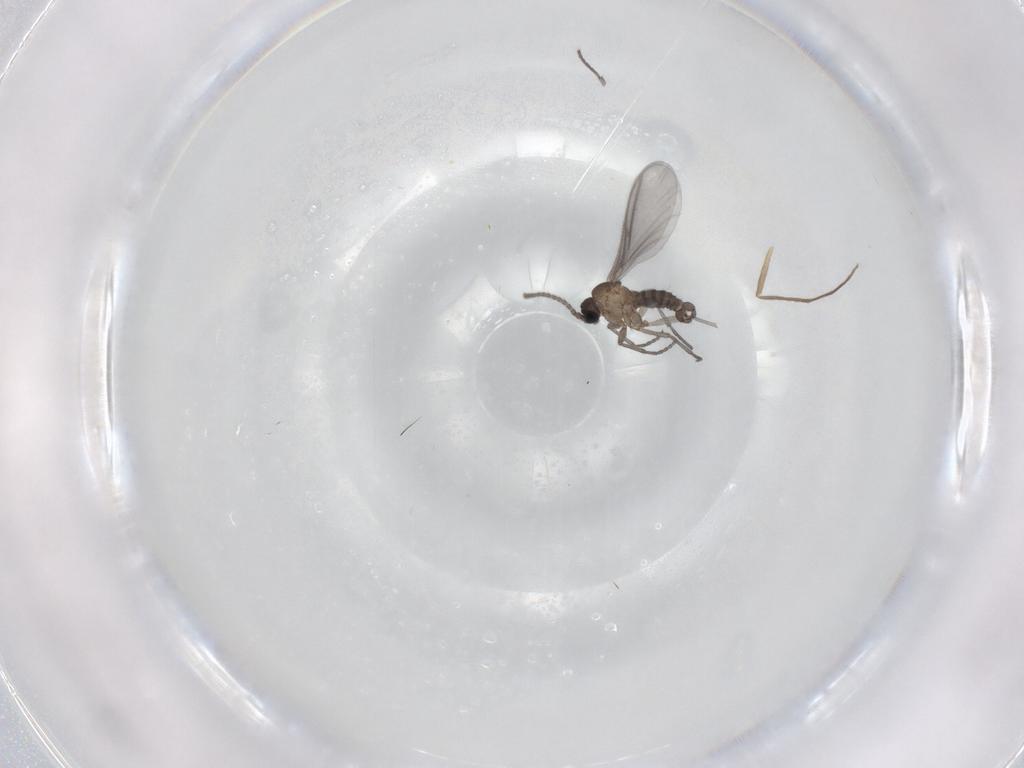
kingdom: Animalia
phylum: Arthropoda
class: Insecta
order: Diptera
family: Sciaridae
